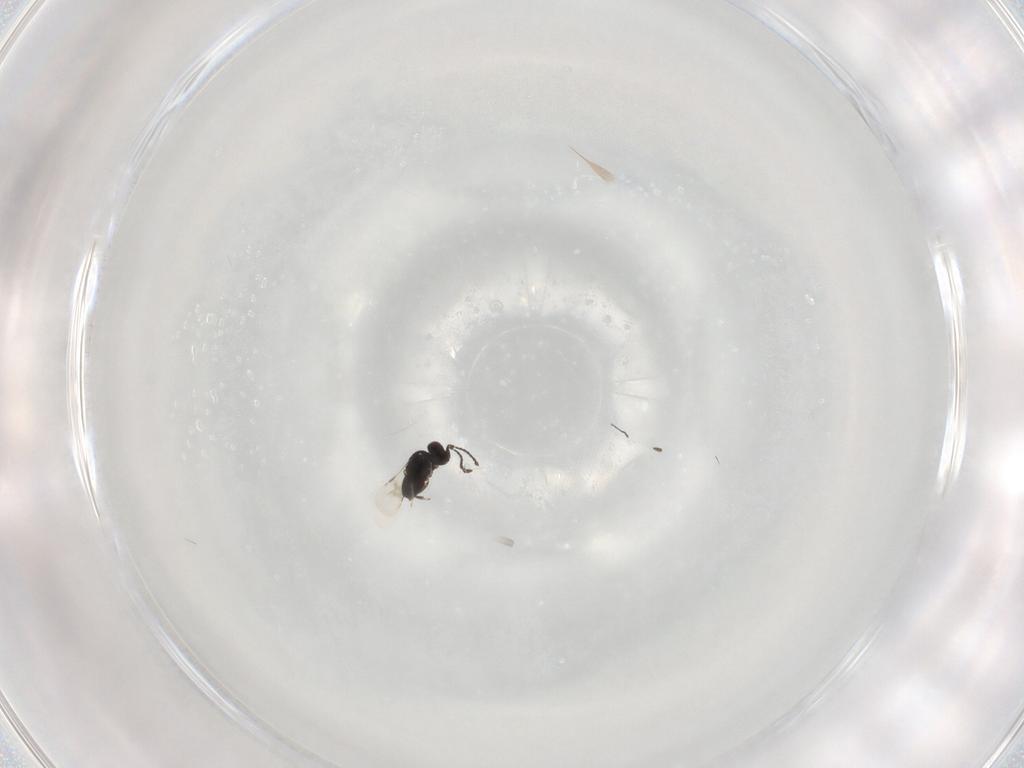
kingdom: Animalia
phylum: Arthropoda
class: Insecta
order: Hymenoptera
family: Ceraphronidae
